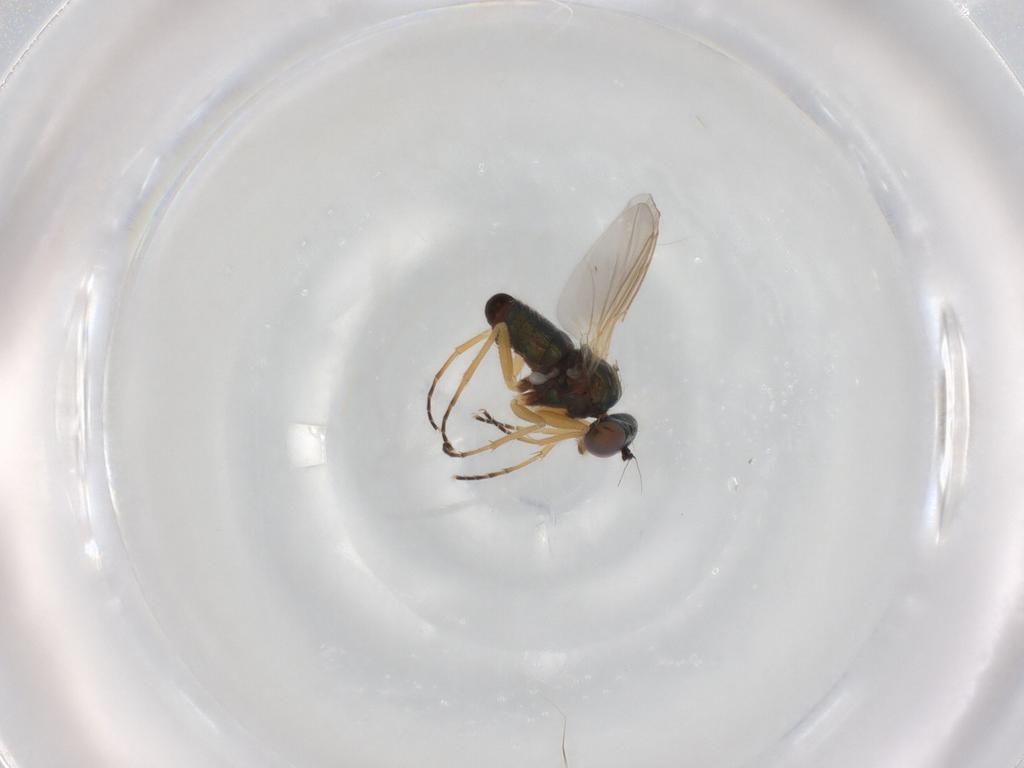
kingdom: Animalia
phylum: Arthropoda
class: Insecta
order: Diptera
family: Dolichopodidae
